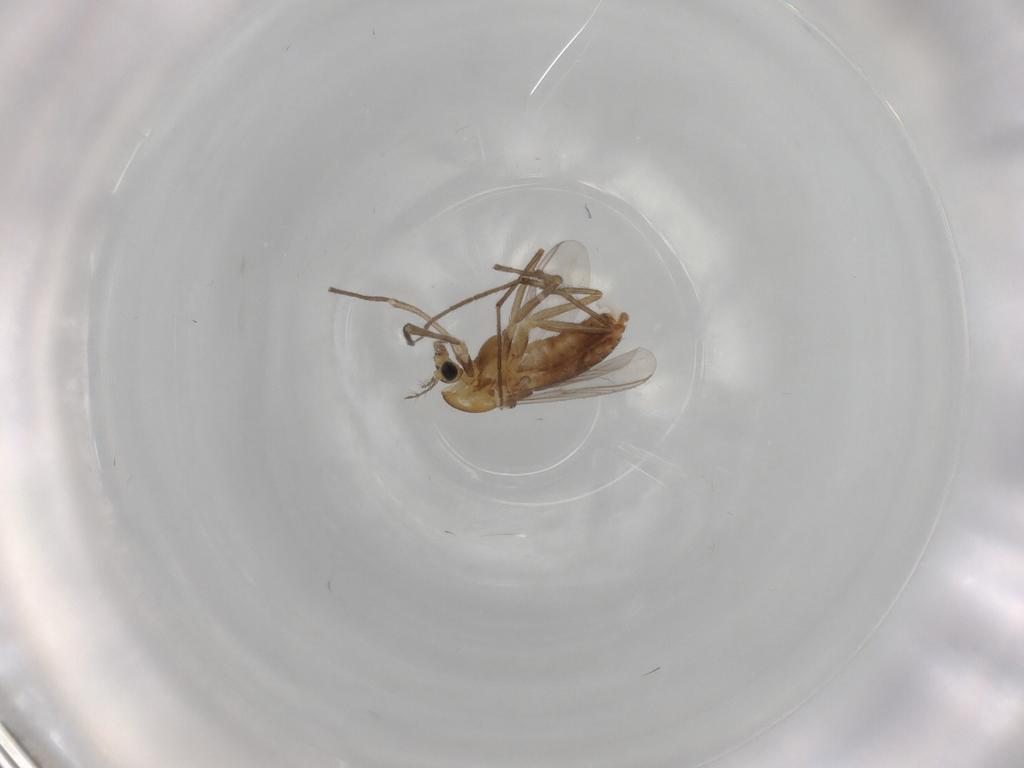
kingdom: Animalia
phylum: Arthropoda
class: Insecta
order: Diptera
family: Chironomidae
